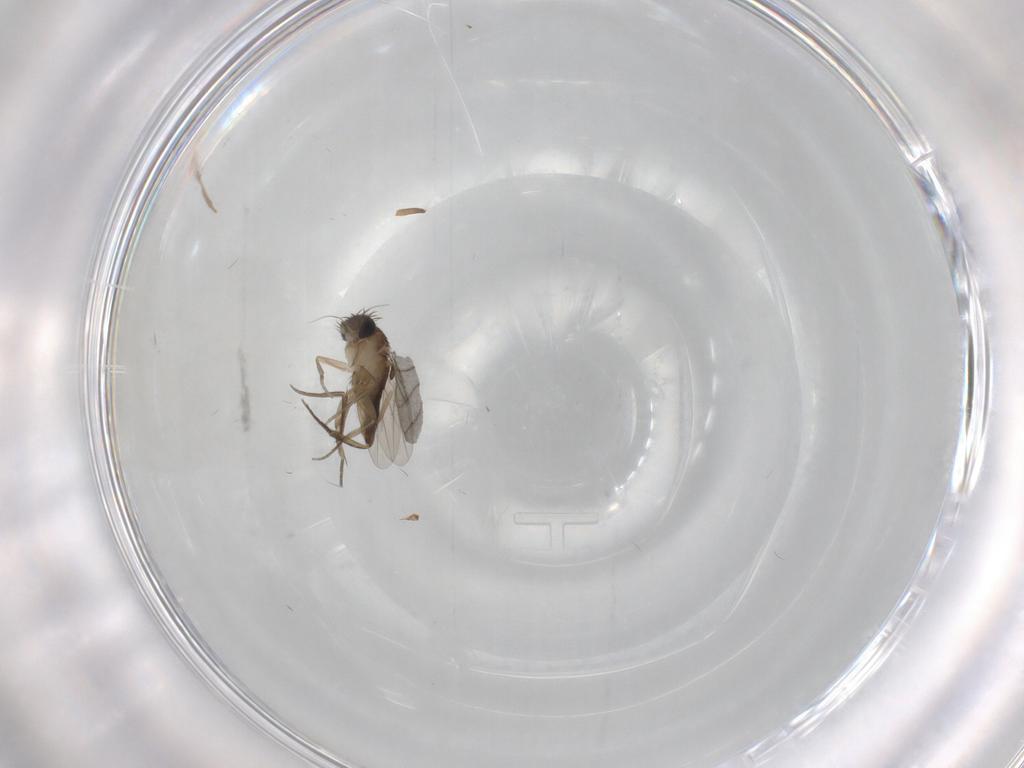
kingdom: Animalia
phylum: Arthropoda
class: Insecta
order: Diptera
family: Chironomidae
